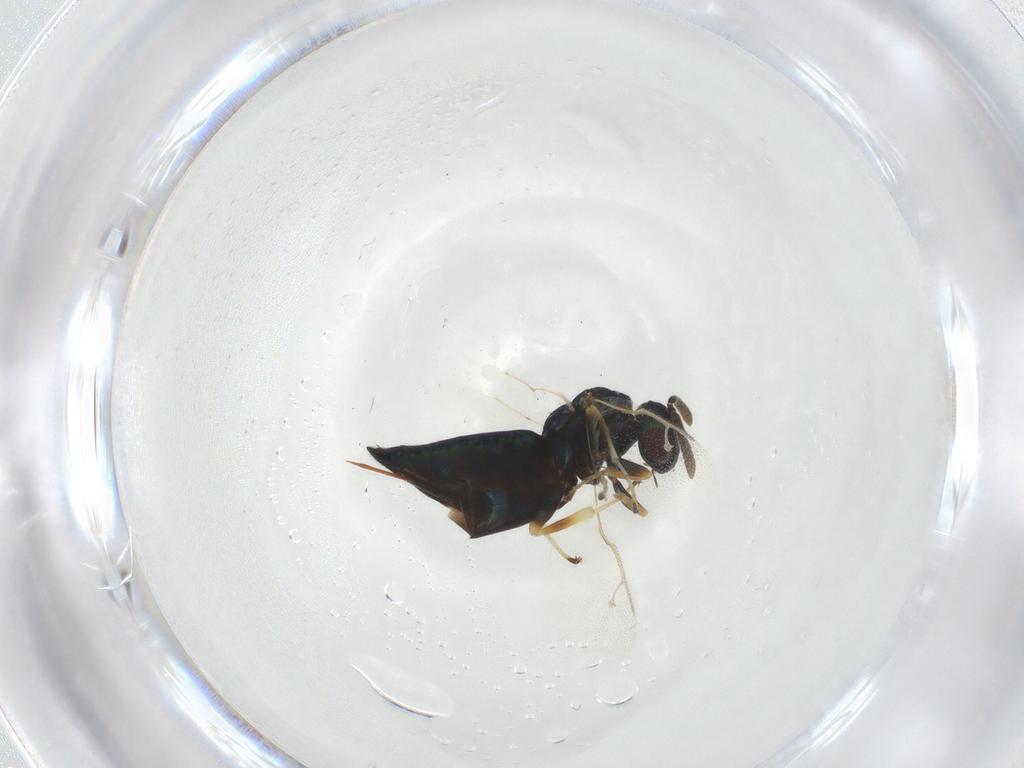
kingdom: Animalia
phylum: Arthropoda
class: Insecta
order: Hymenoptera
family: Pteromalidae
